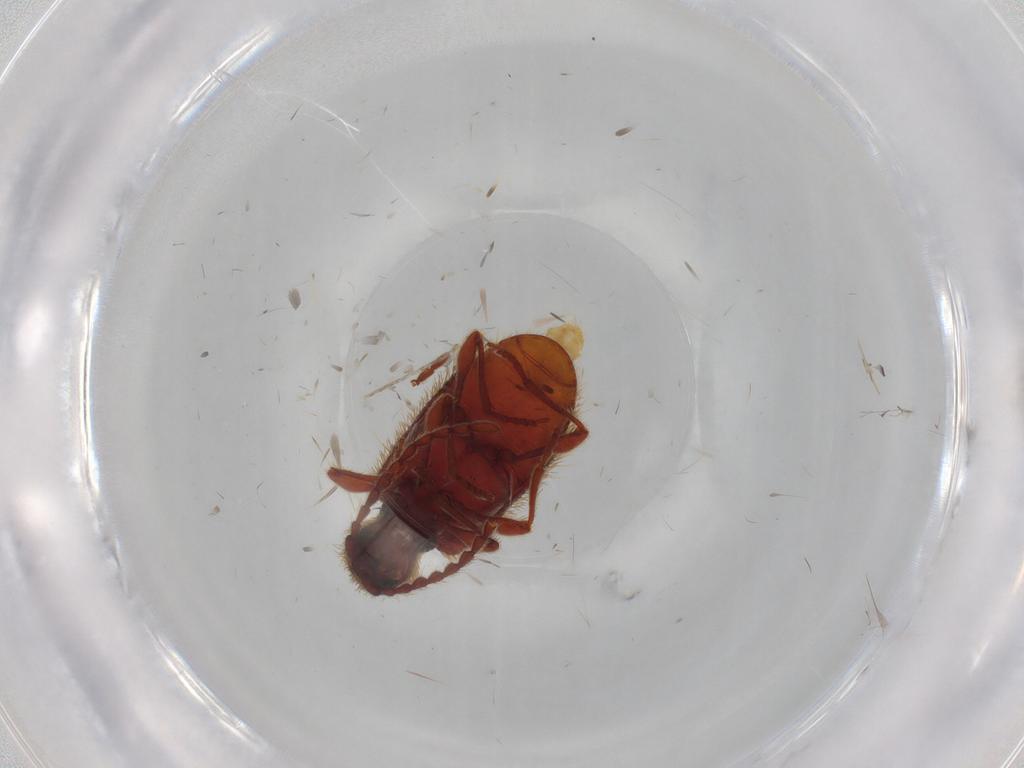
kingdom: Animalia
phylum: Arthropoda
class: Insecta
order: Coleoptera
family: Ptinidae
